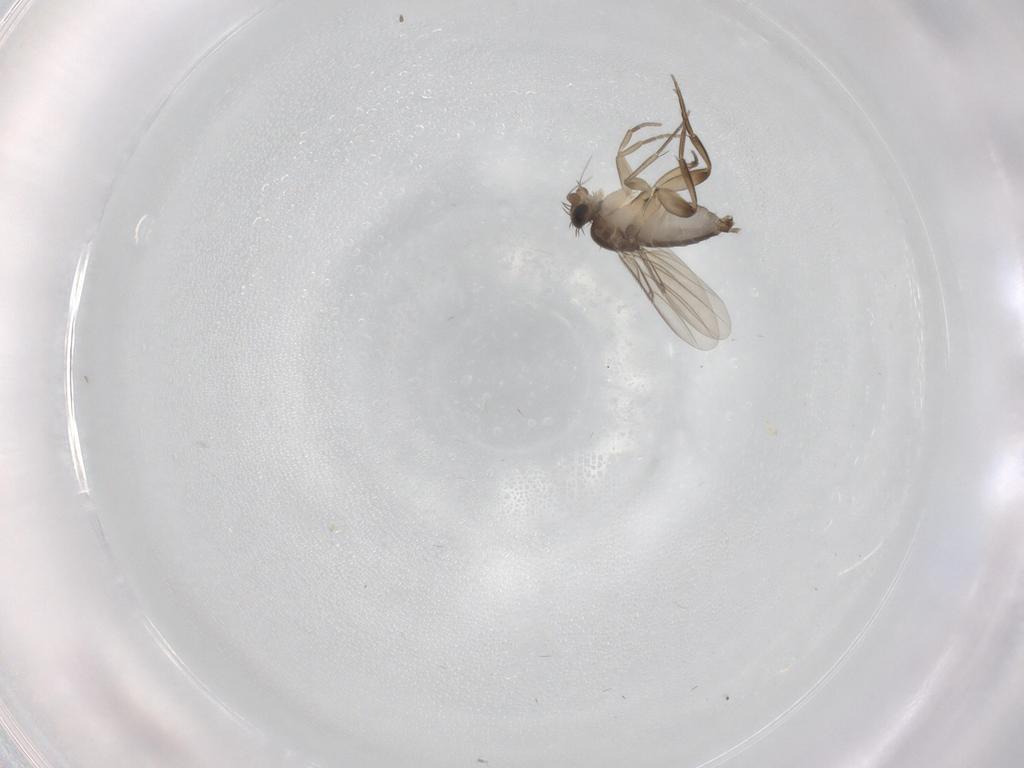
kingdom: Animalia
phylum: Arthropoda
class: Insecta
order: Diptera
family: Phoridae
